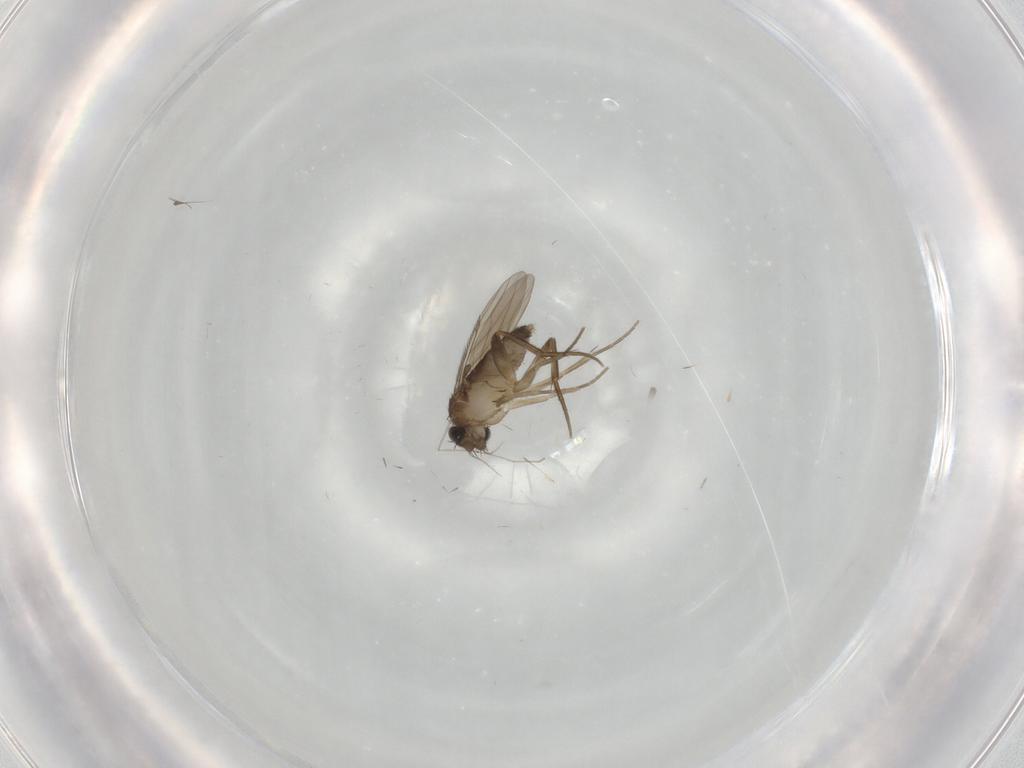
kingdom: Animalia
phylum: Arthropoda
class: Insecta
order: Diptera
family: Phoridae
